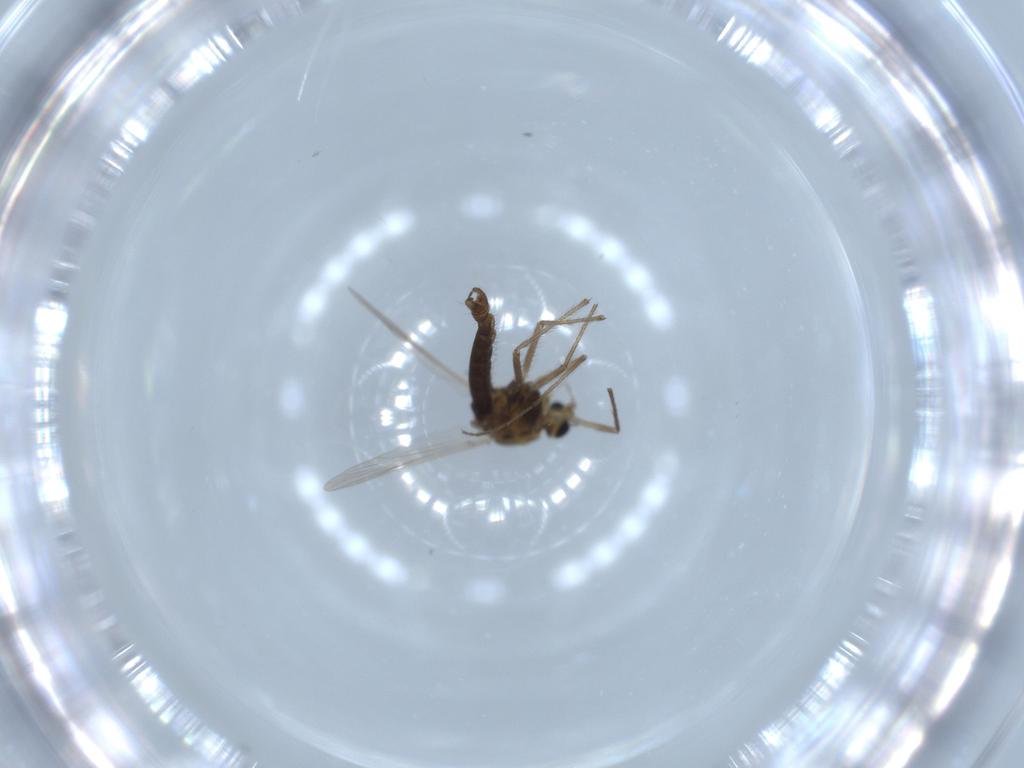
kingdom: Animalia
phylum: Arthropoda
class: Insecta
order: Diptera
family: Chironomidae
